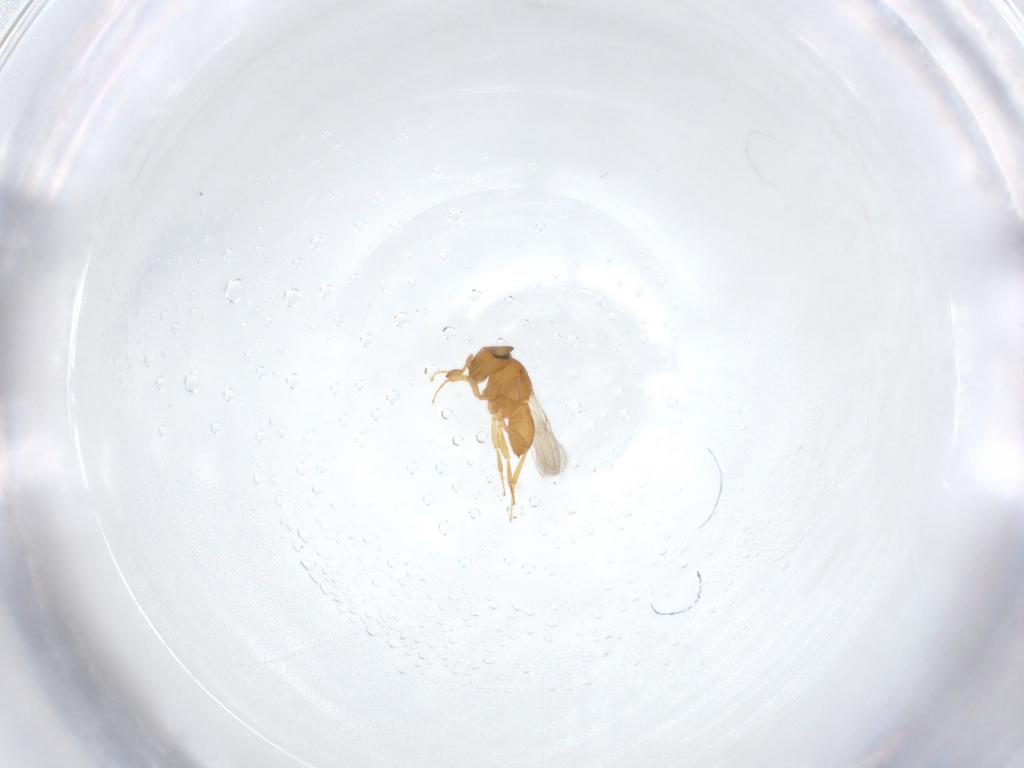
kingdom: Animalia
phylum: Arthropoda
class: Insecta
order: Hymenoptera
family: Scelionidae
